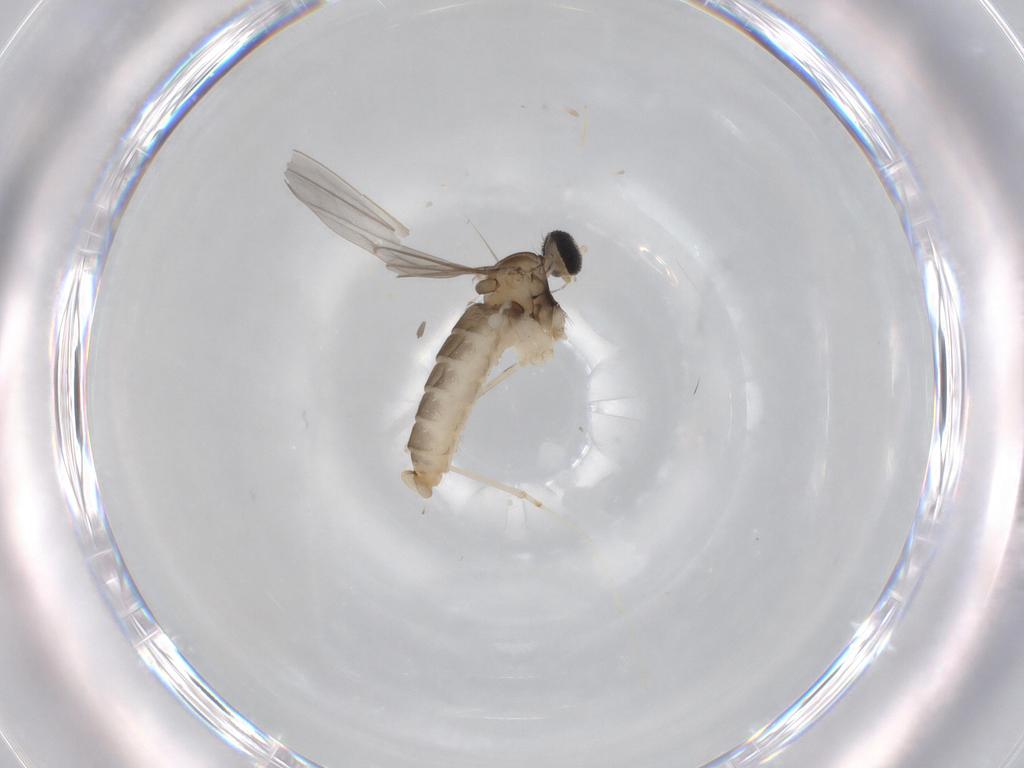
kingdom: Animalia
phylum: Arthropoda
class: Insecta
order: Diptera
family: Cecidomyiidae
